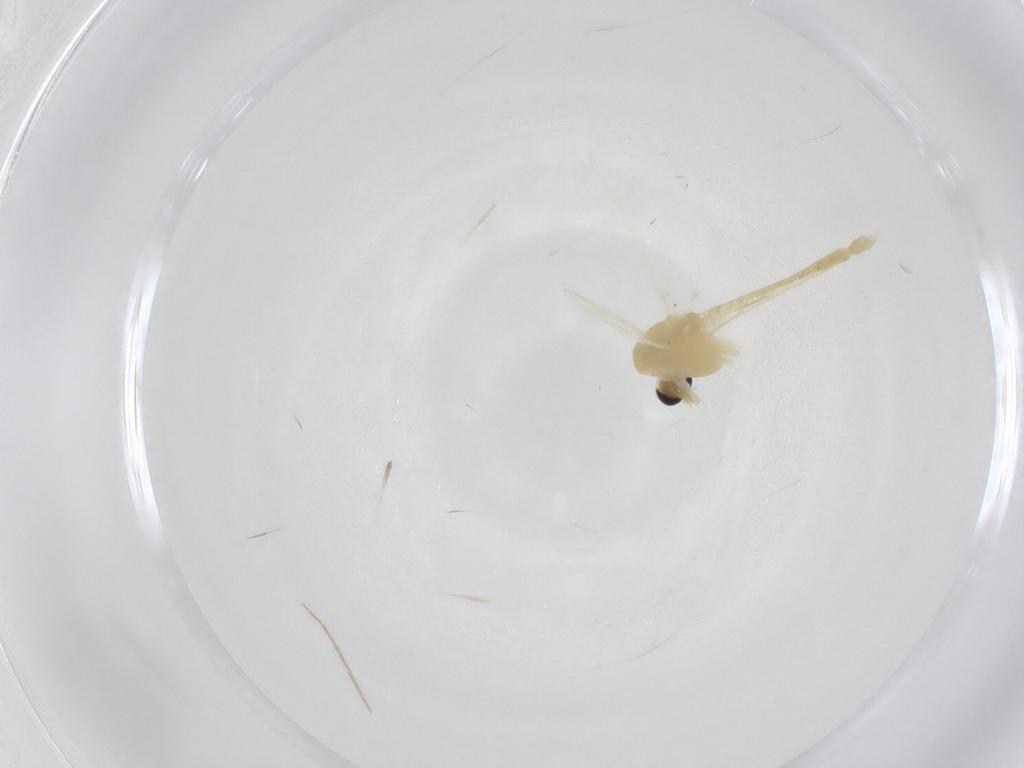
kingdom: Animalia
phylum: Arthropoda
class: Insecta
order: Diptera
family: Chironomidae
